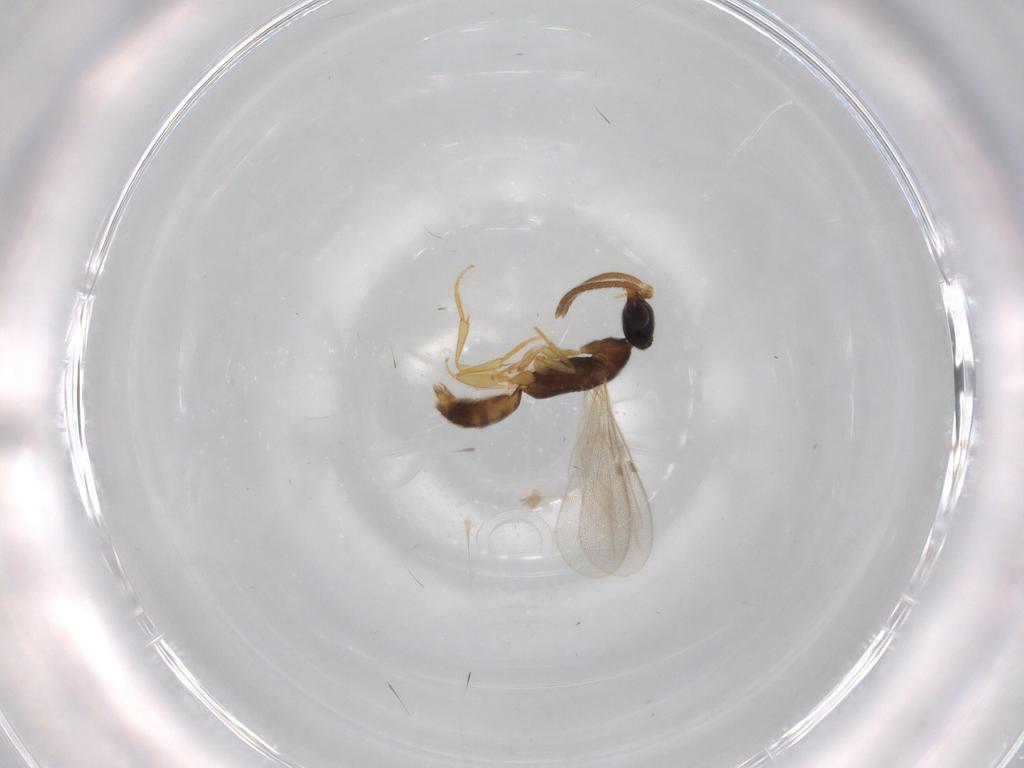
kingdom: Animalia
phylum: Arthropoda
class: Insecta
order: Hymenoptera
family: Bethylidae
